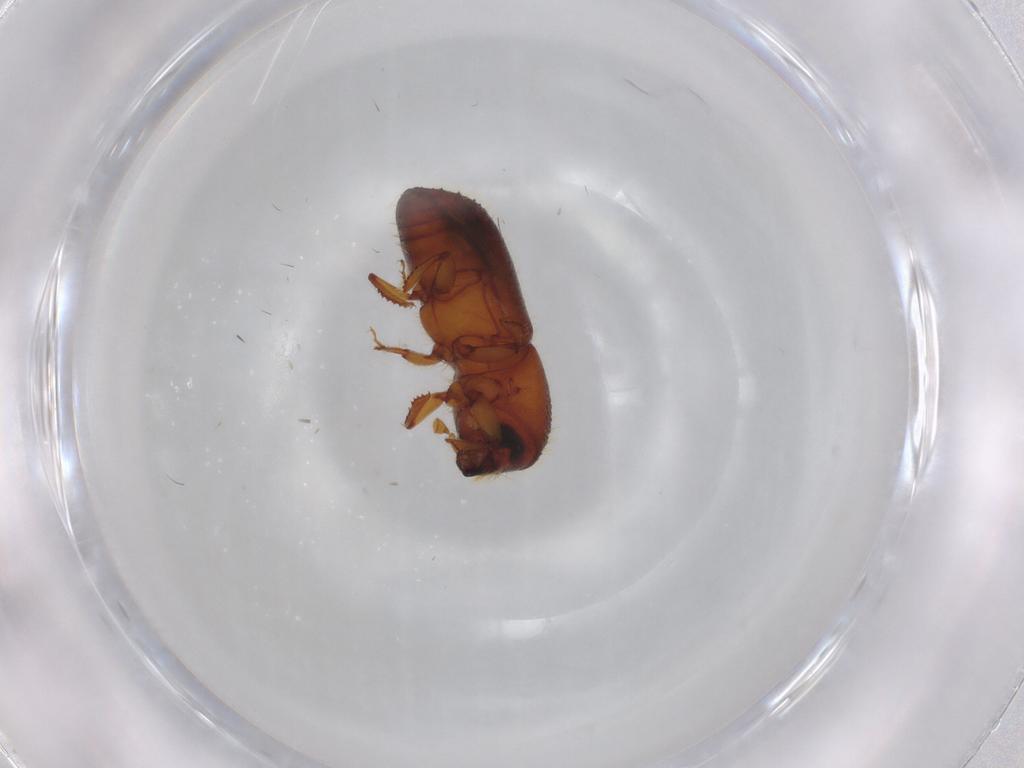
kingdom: Animalia
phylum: Arthropoda
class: Insecta
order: Coleoptera
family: Curculionidae
